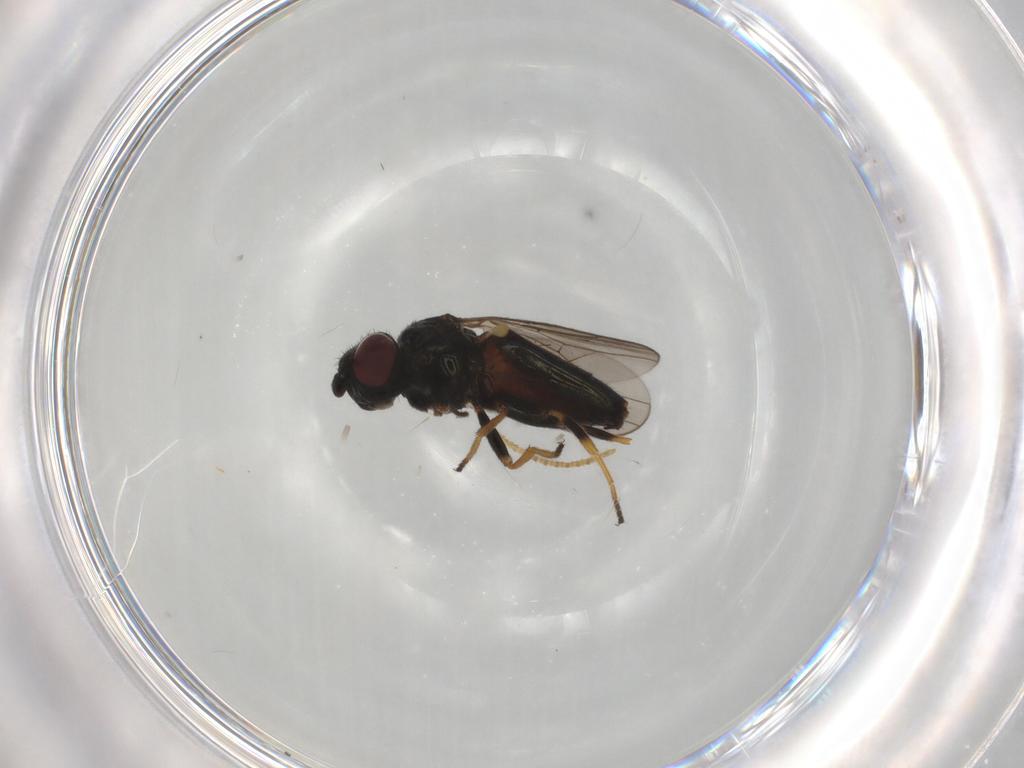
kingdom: Animalia
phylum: Arthropoda
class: Insecta
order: Diptera
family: Chloropidae
